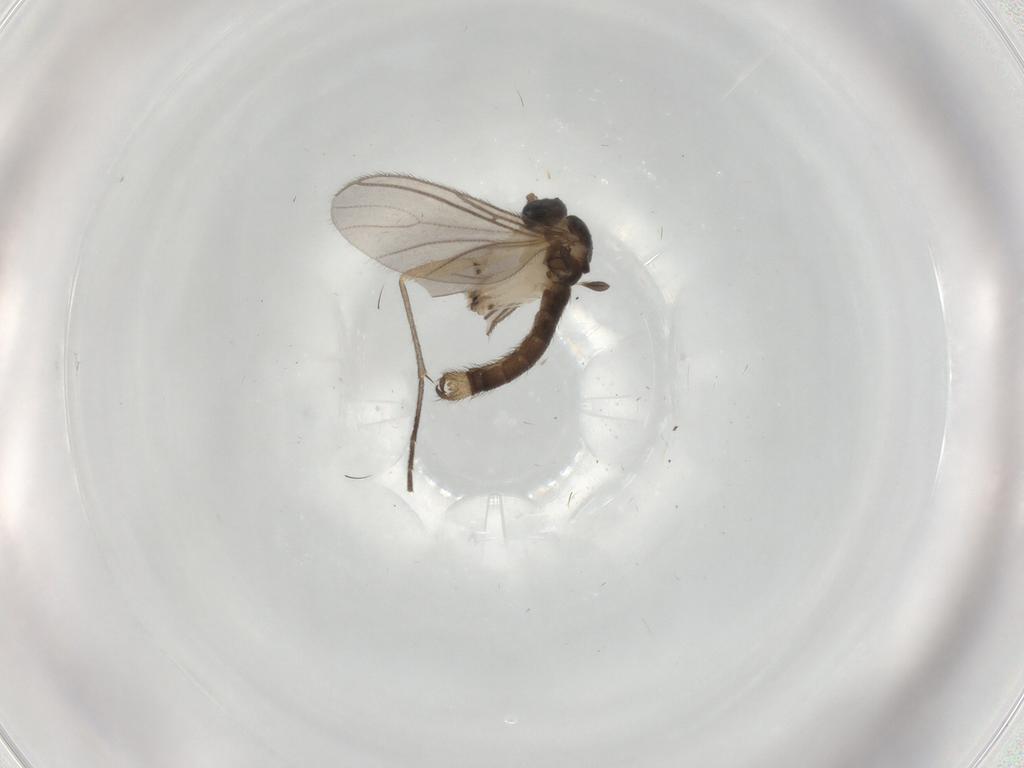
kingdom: Animalia
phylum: Arthropoda
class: Insecta
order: Diptera
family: Sciaridae
